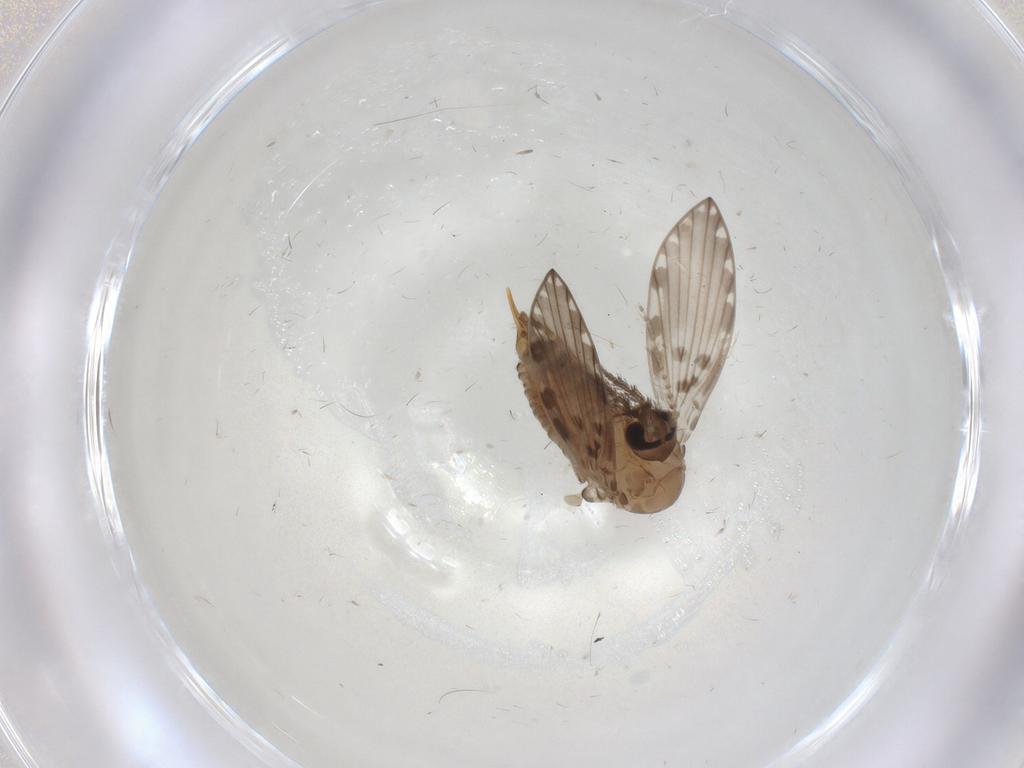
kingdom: Animalia
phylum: Arthropoda
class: Insecta
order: Diptera
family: Psychodidae
